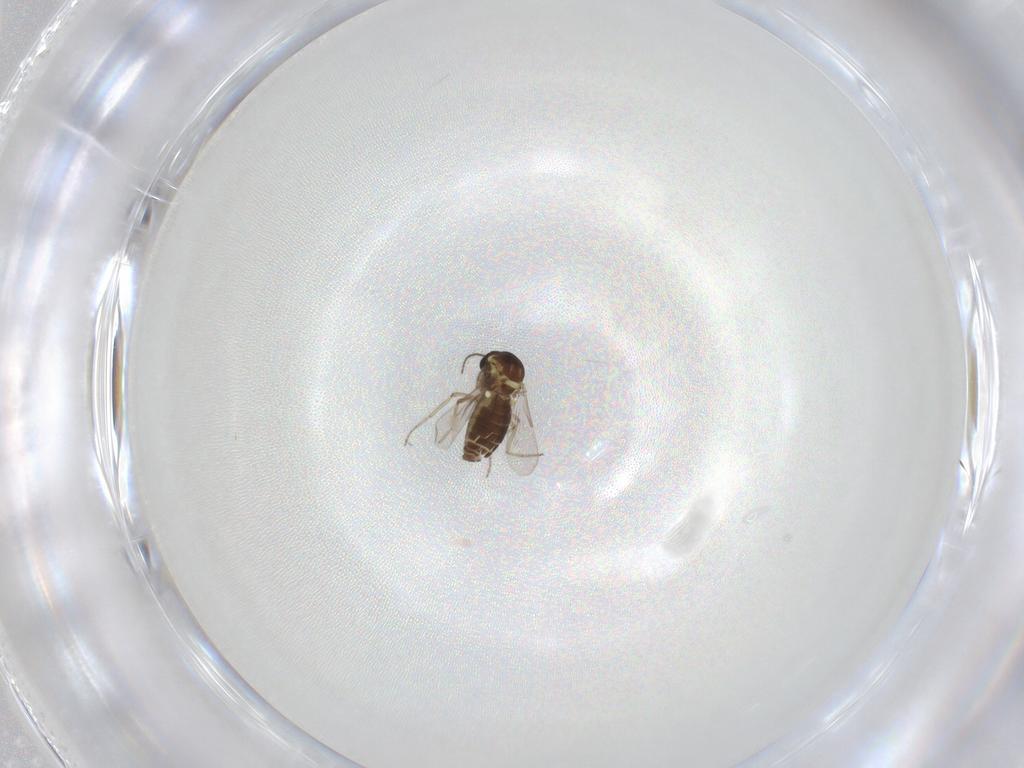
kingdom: Animalia
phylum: Arthropoda
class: Insecta
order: Diptera
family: Ceratopogonidae
